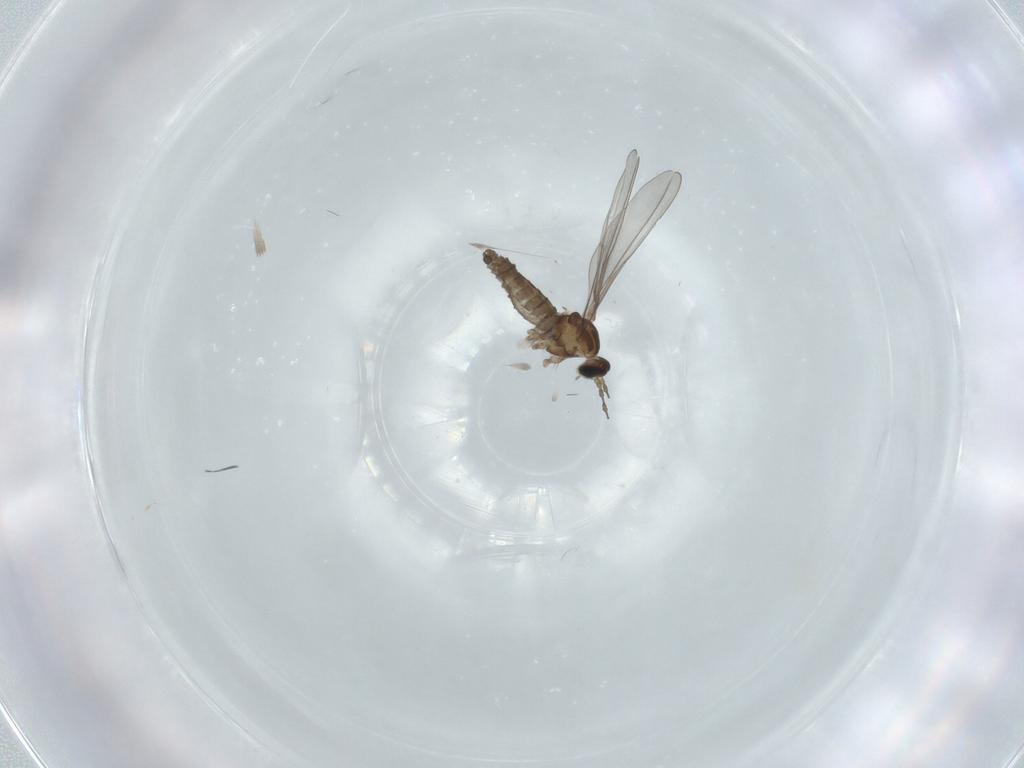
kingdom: Animalia
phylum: Arthropoda
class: Insecta
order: Diptera
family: Cecidomyiidae
